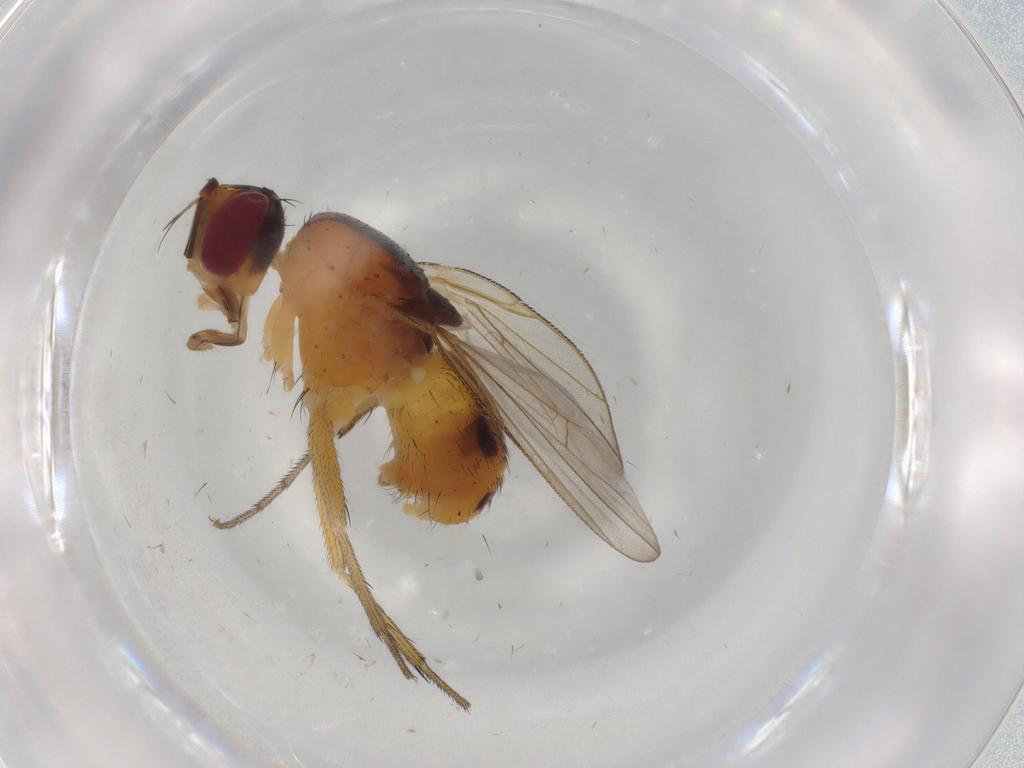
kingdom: Animalia
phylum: Arthropoda
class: Insecta
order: Diptera
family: Muscidae
